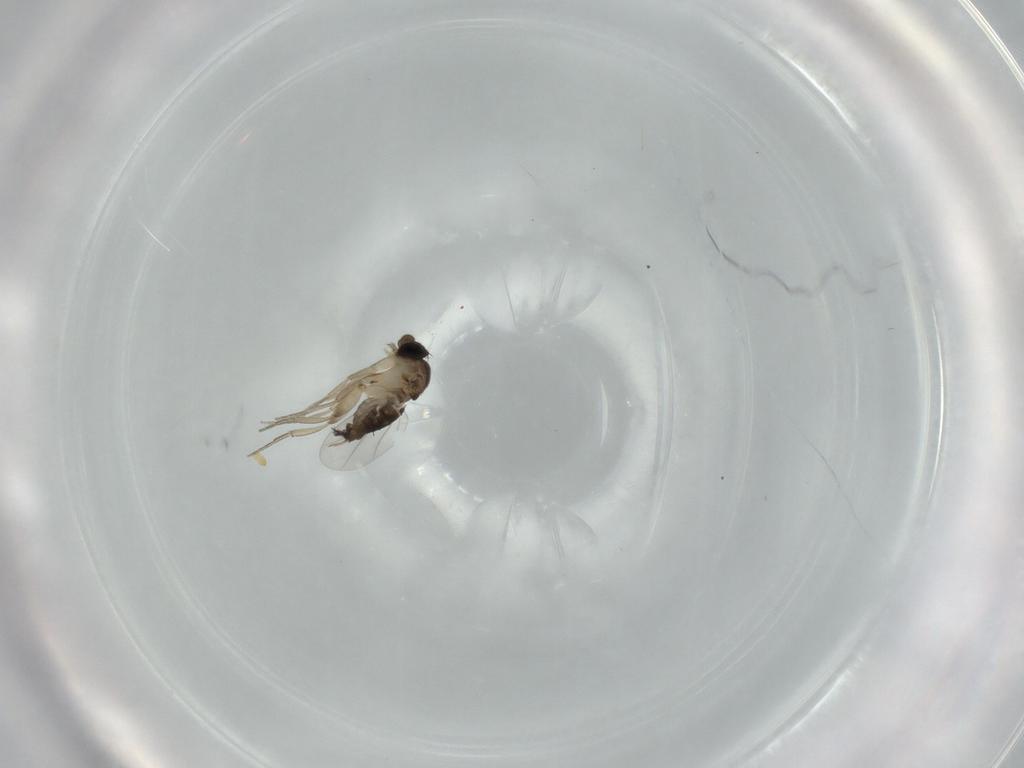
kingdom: Animalia
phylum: Arthropoda
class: Insecta
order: Diptera
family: Phoridae
